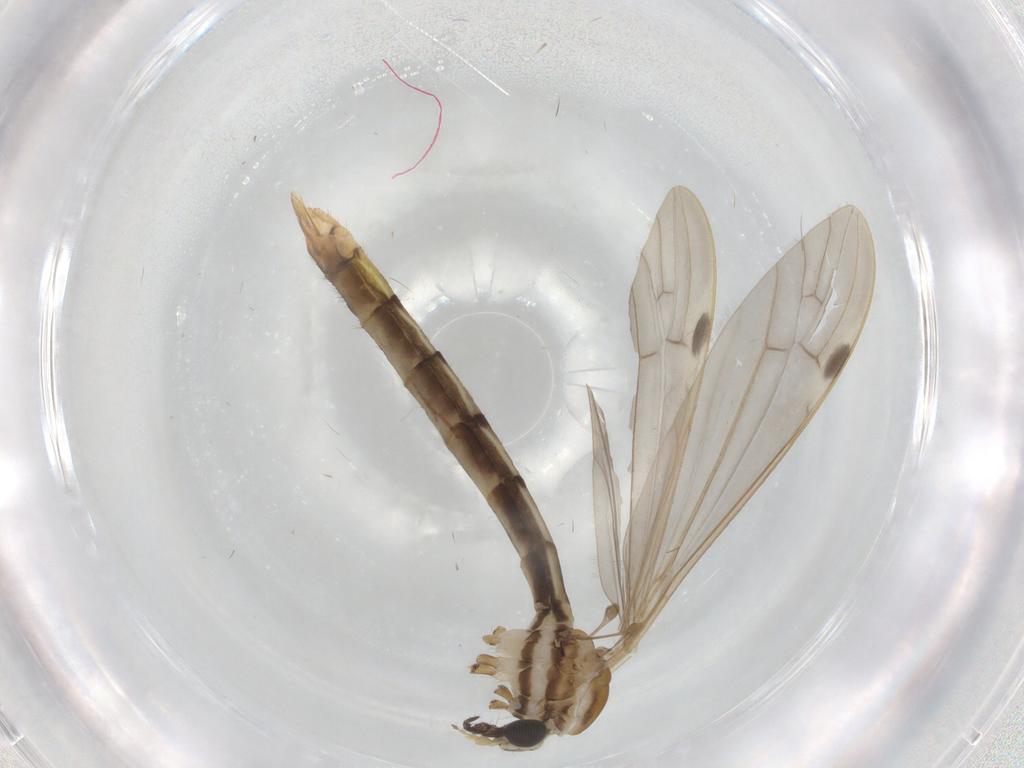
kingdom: Animalia
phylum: Arthropoda
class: Insecta
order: Diptera
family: Psychodidae
